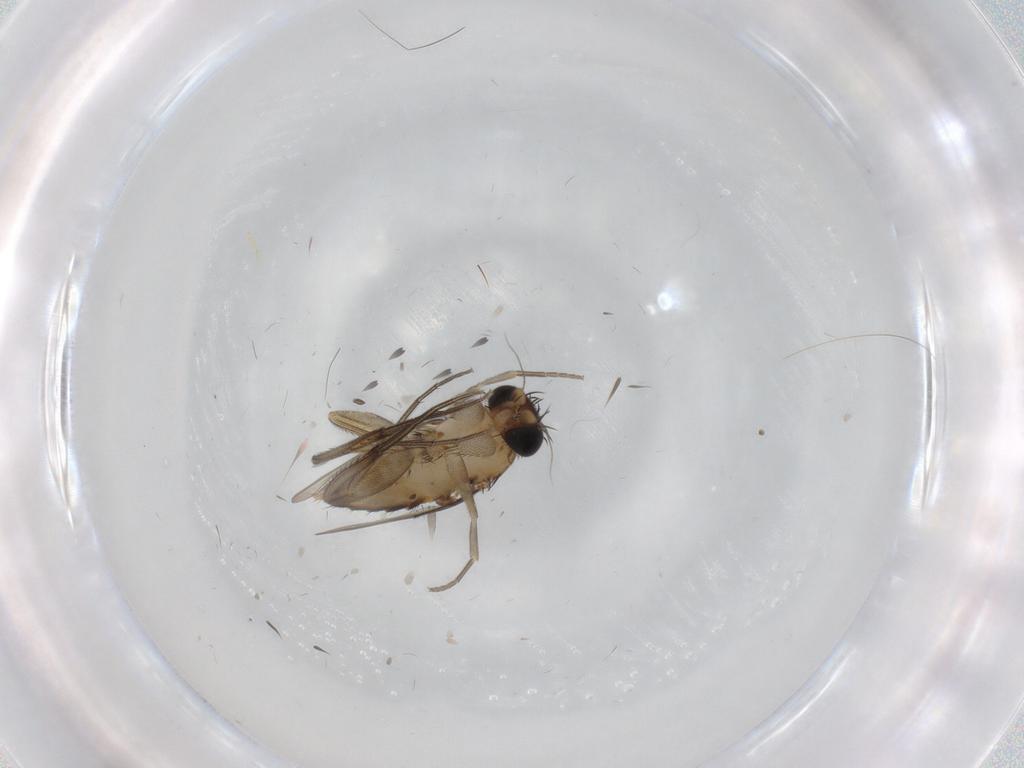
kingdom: Animalia
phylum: Arthropoda
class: Insecta
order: Diptera
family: Phoridae
